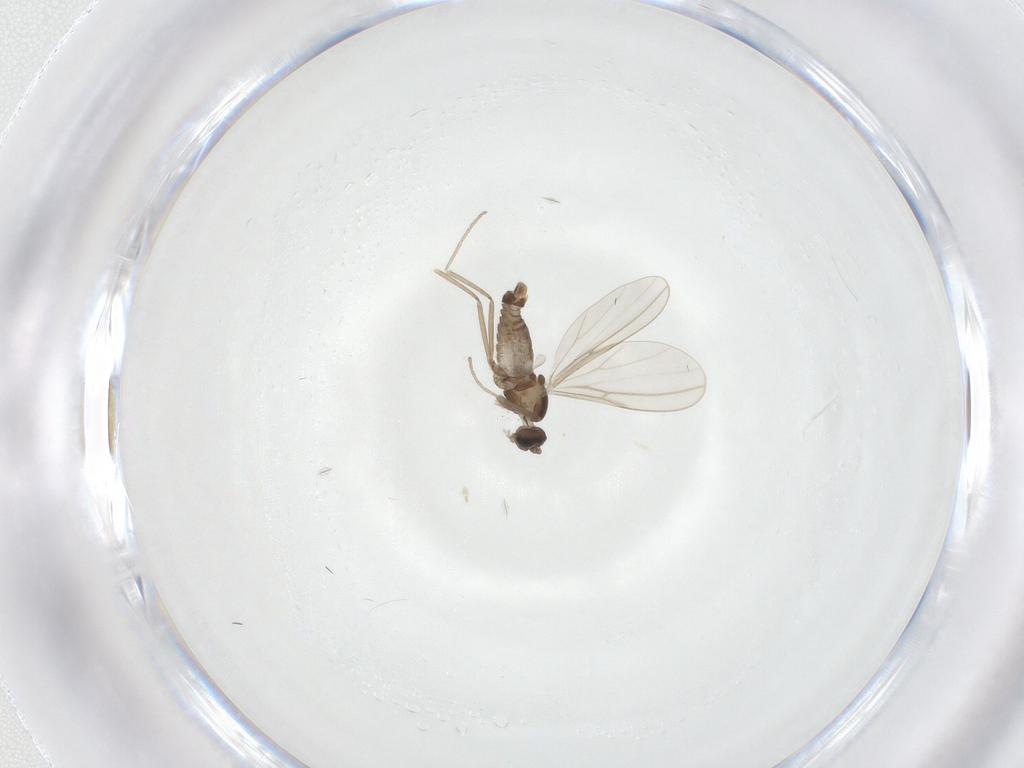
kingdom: Animalia
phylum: Arthropoda
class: Insecta
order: Diptera
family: Cecidomyiidae
